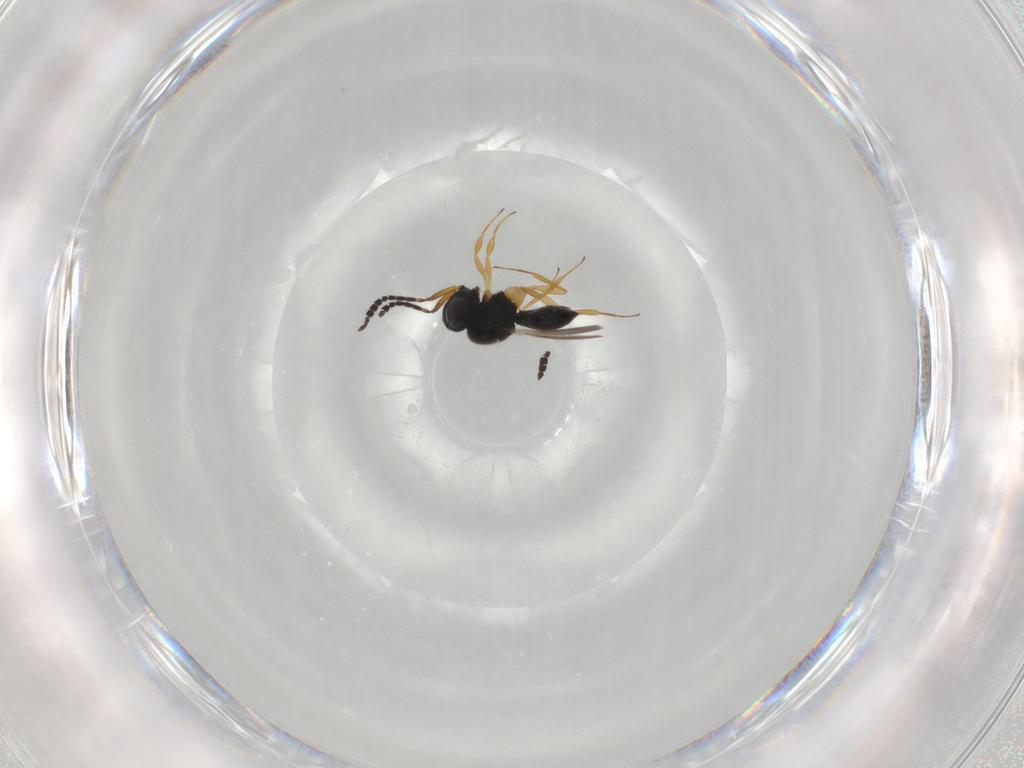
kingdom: Animalia
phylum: Arthropoda
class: Insecta
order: Hymenoptera
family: Scelionidae
